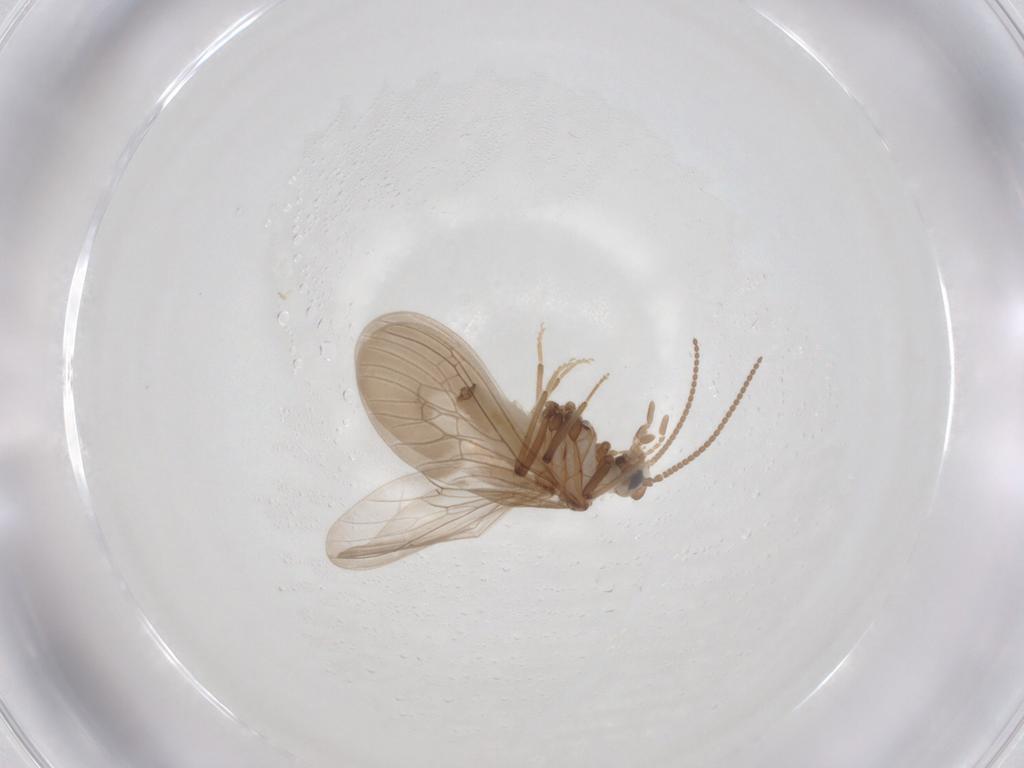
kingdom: Animalia
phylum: Arthropoda
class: Insecta
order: Neuroptera
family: Coniopterygidae
